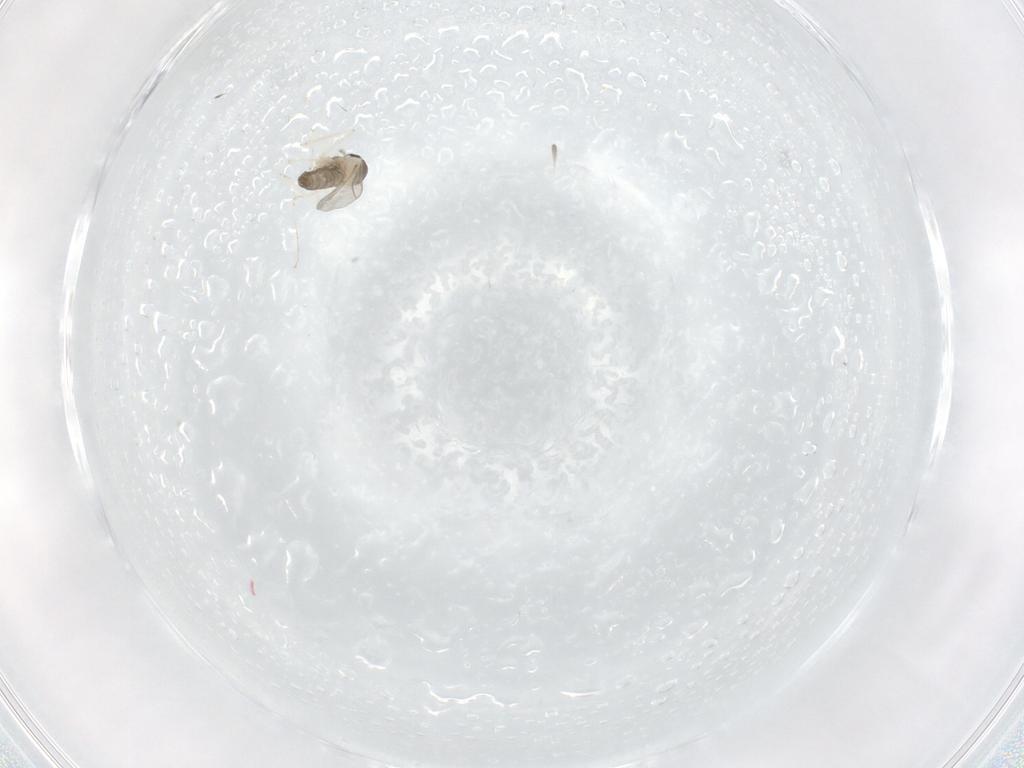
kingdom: Animalia
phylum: Arthropoda
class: Insecta
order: Diptera
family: Cecidomyiidae
